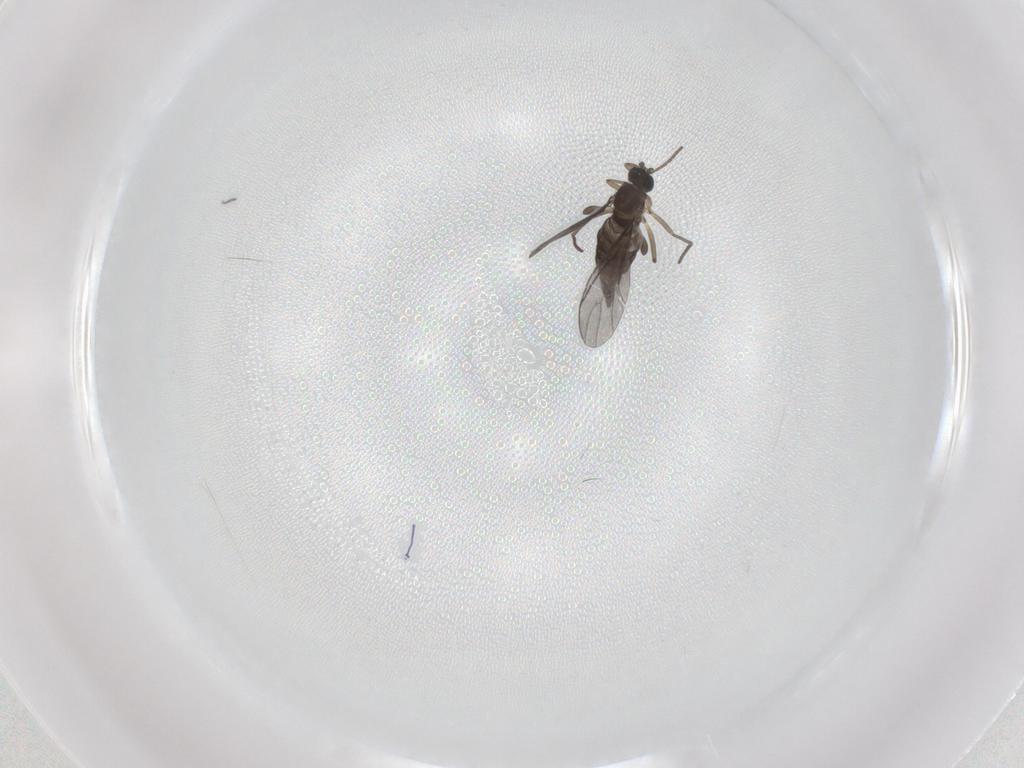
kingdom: Animalia
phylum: Arthropoda
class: Insecta
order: Diptera
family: Sciaridae
